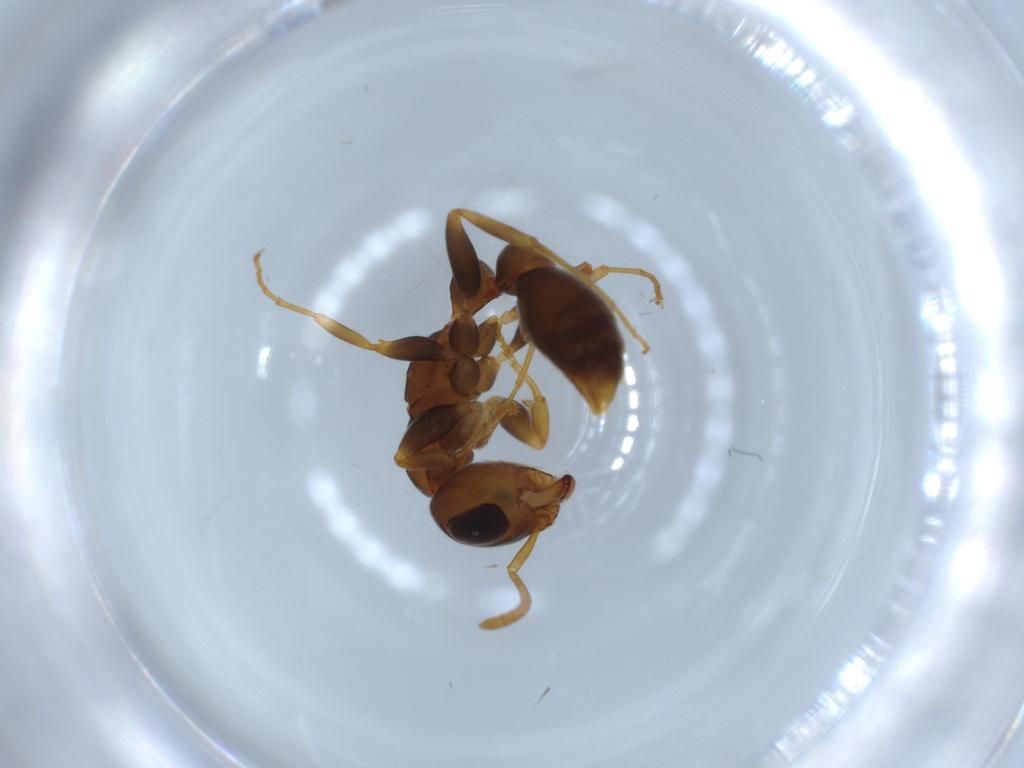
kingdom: Animalia
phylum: Arthropoda
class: Insecta
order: Hymenoptera
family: Formicidae
